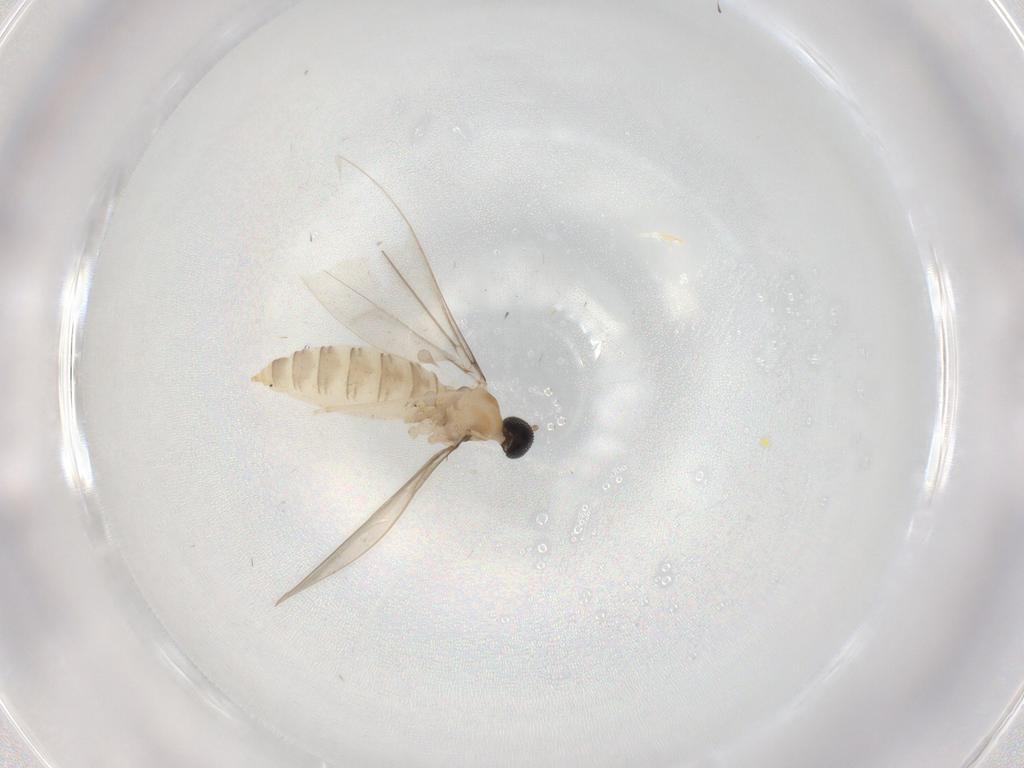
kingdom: Animalia
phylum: Arthropoda
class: Insecta
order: Diptera
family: Cecidomyiidae
